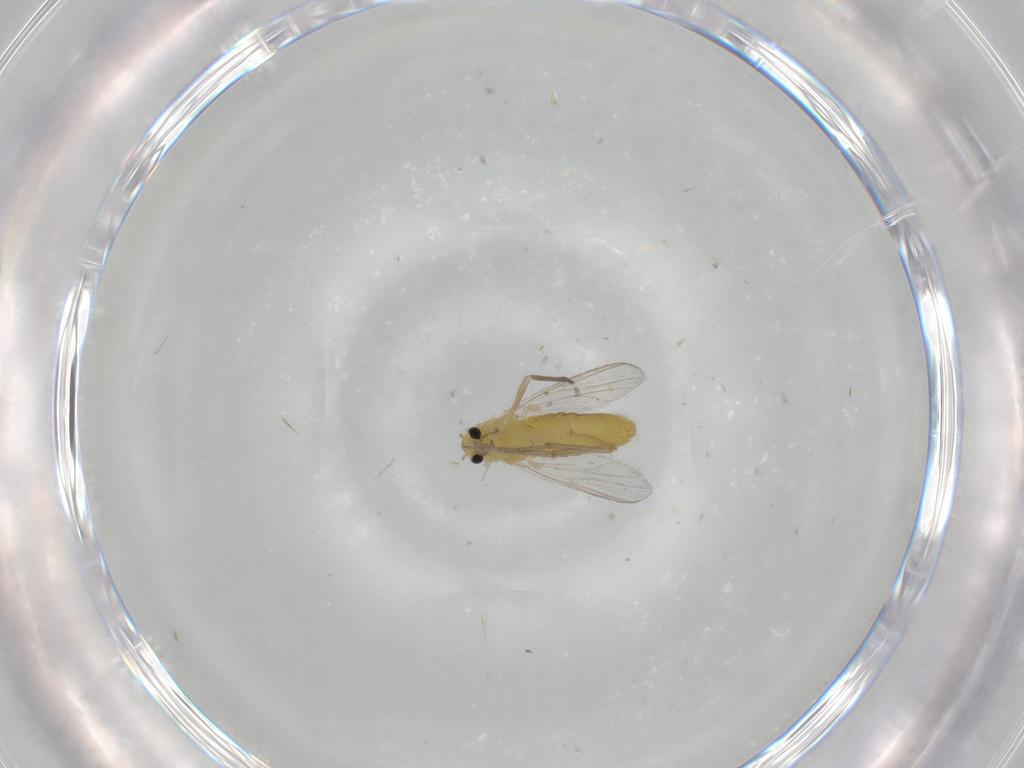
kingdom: Animalia
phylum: Arthropoda
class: Insecta
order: Diptera
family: Chironomidae
